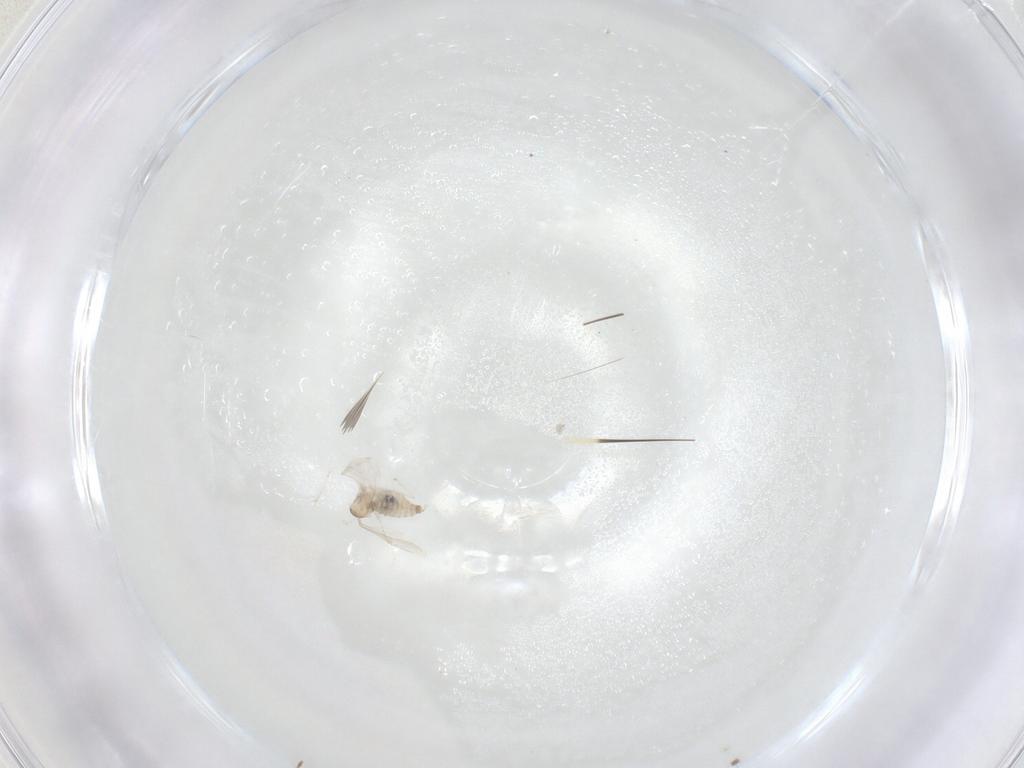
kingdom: Animalia
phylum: Arthropoda
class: Insecta
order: Diptera
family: Cecidomyiidae
